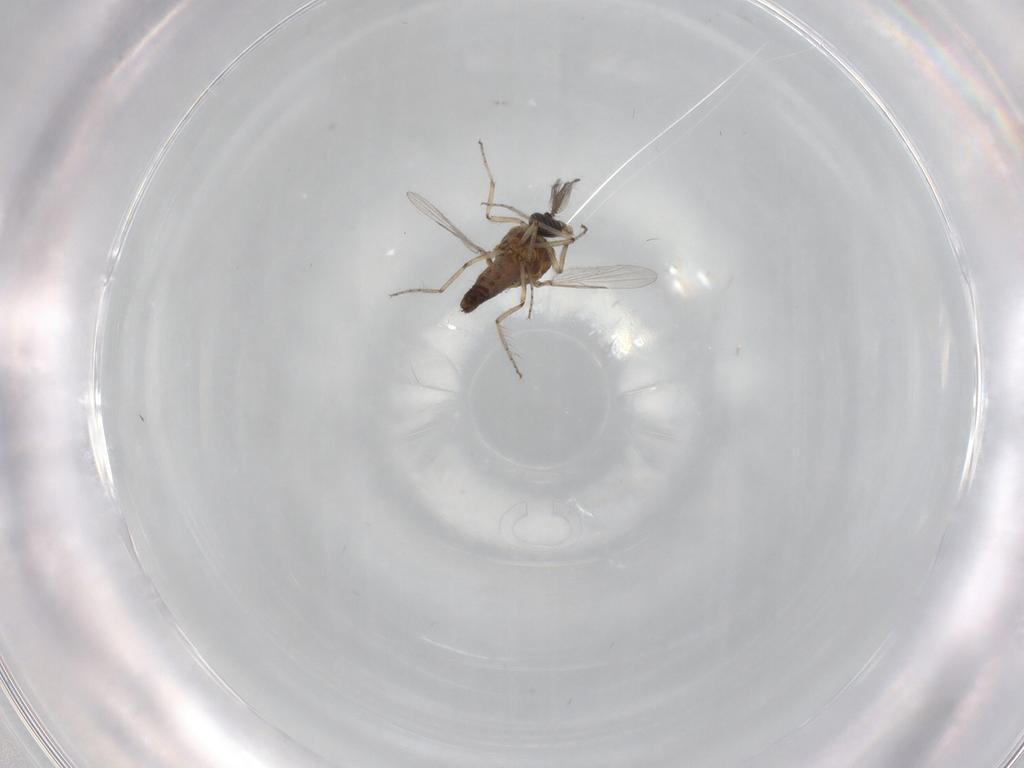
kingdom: Animalia
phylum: Arthropoda
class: Insecta
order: Diptera
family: Ceratopogonidae
